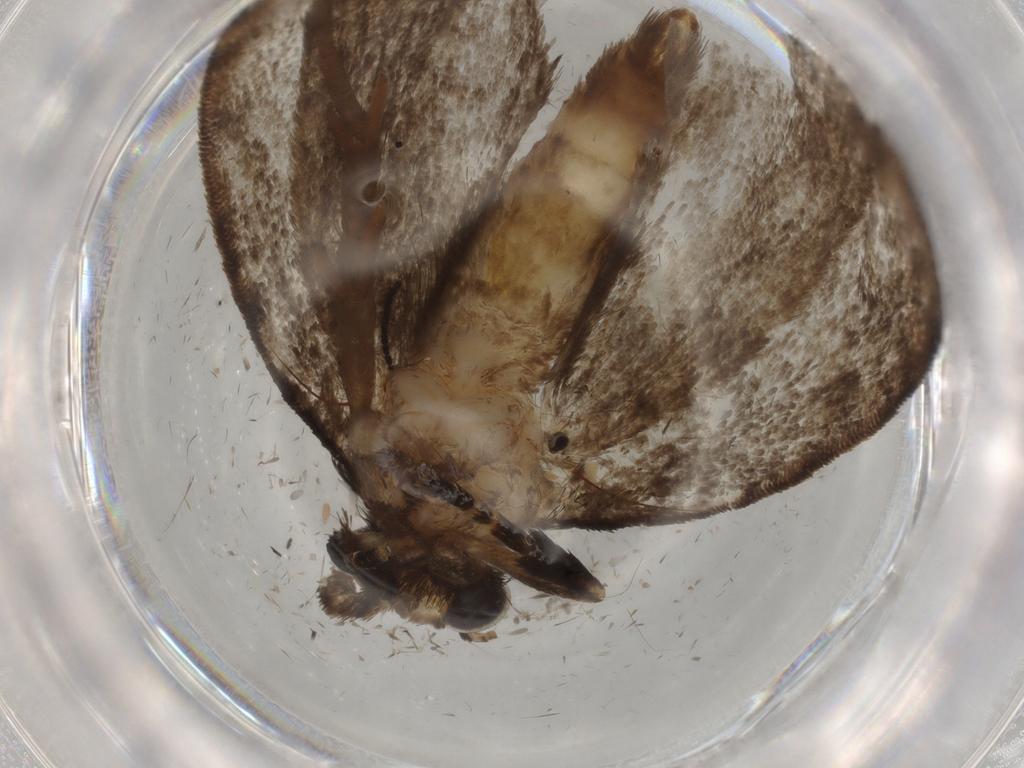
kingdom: Animalia
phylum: Arthropoda
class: Insecta
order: Lepidoptera
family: Tineidae
